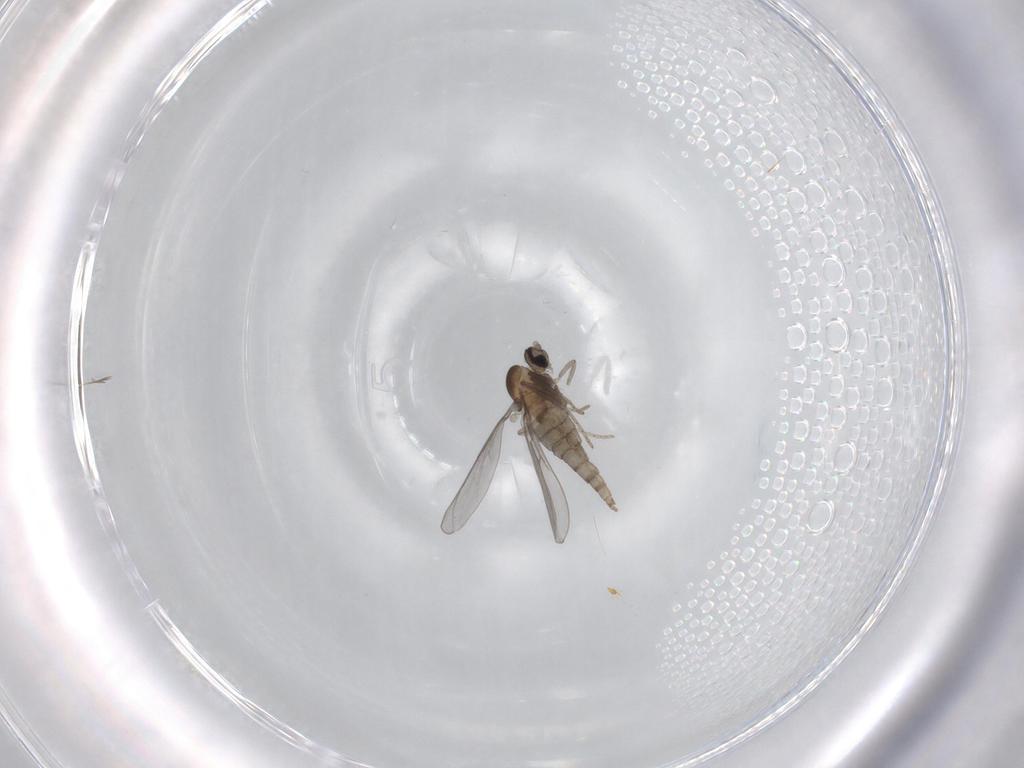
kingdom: Animalia
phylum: Arthropoda
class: Insecta
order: Diptera
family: Cecidomyiidae
